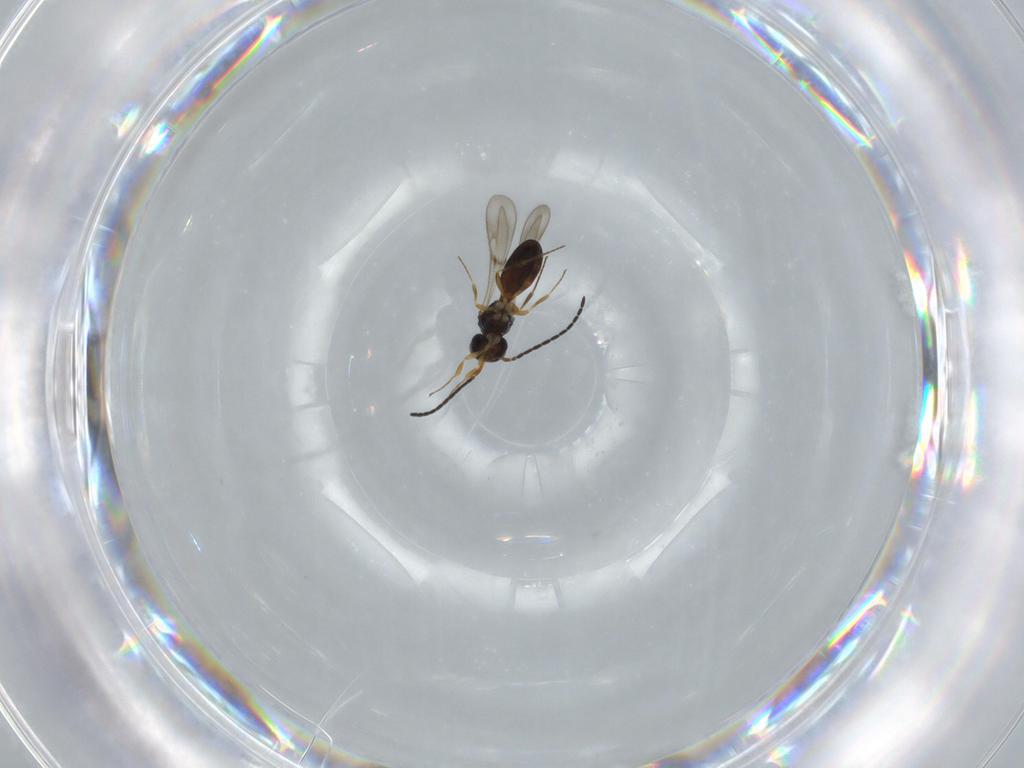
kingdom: Animalia
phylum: Arthropoda
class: Insecta
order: Hymenoptera
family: Scelionidae
